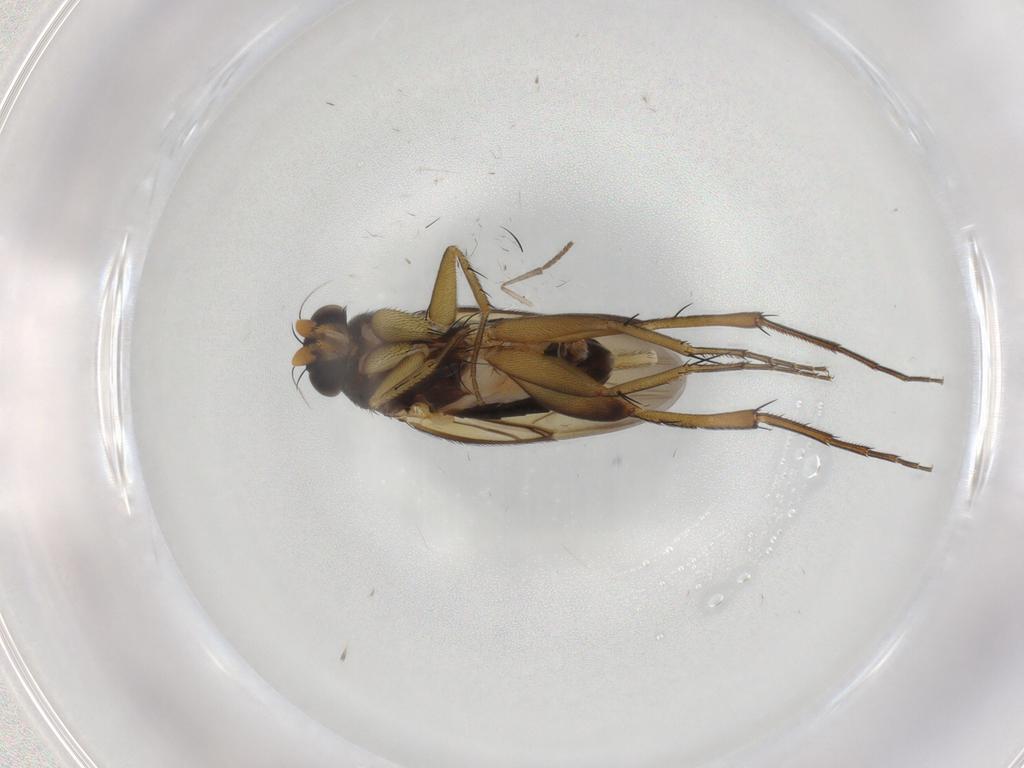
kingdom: Animalia
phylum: Arthropoda
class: Insecta
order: Diptera
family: Phoridae
